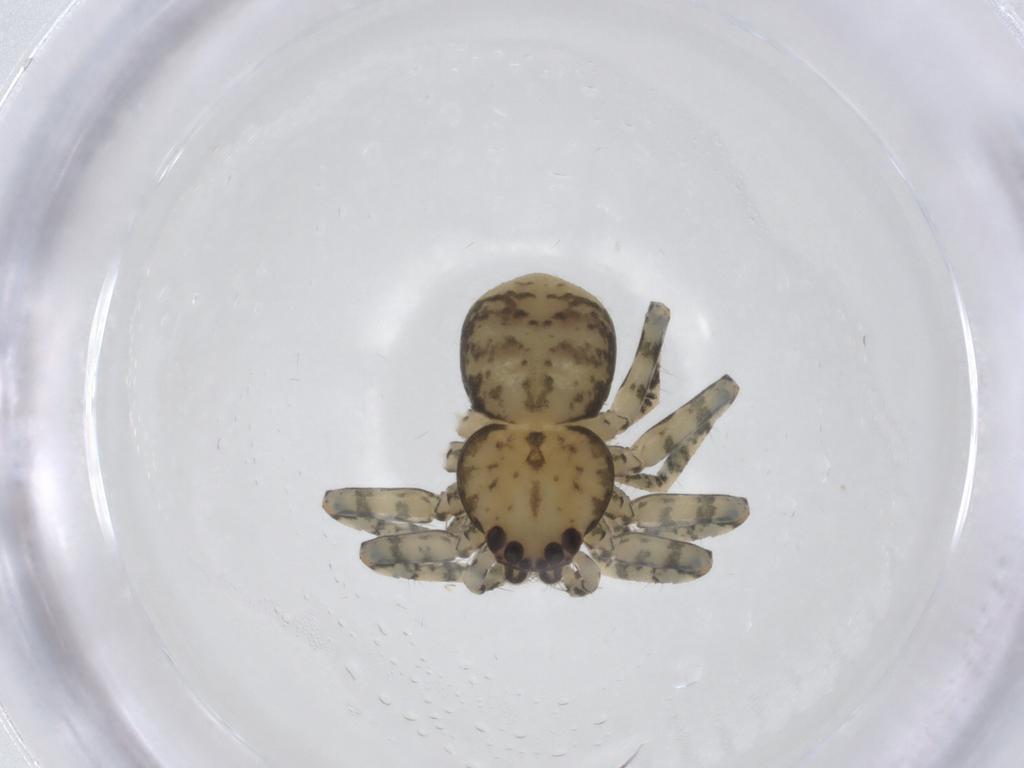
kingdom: Animalia
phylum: Arthropoda
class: Arachnida
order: Araneae
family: Selenopidae
